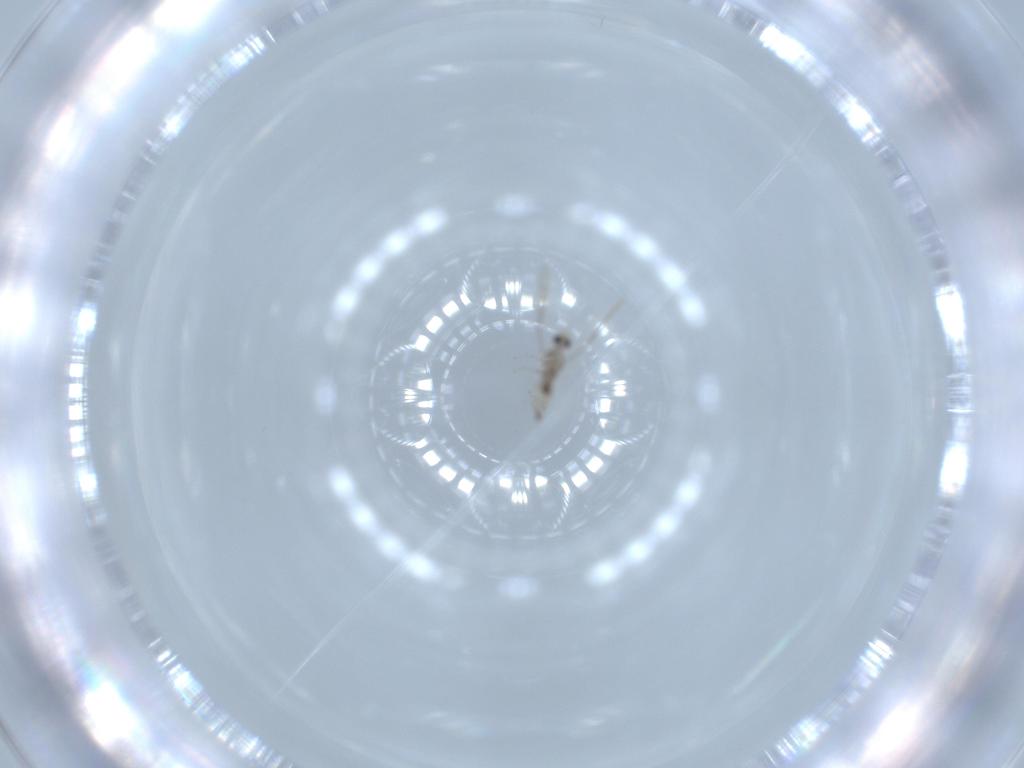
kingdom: Animalia
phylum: Arthropoda
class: Insecta
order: Diptera
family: Cecidomyiidae
